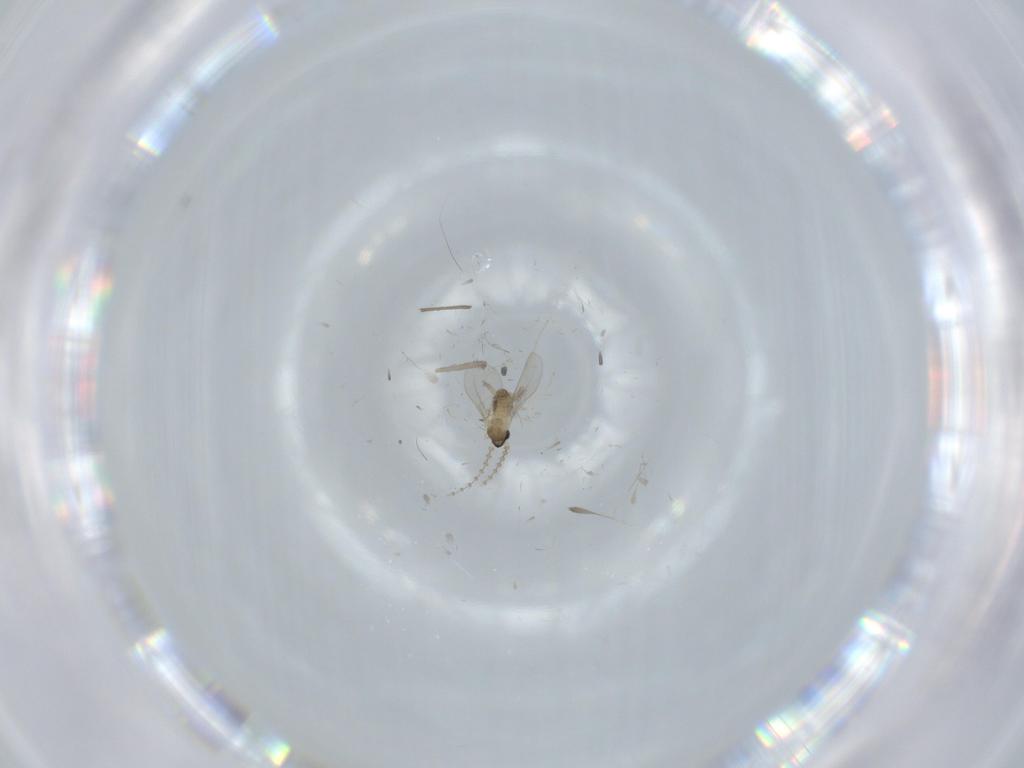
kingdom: Animalia
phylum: Arthropoda
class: Insecta
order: Diptera
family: Cecidomyiidae
